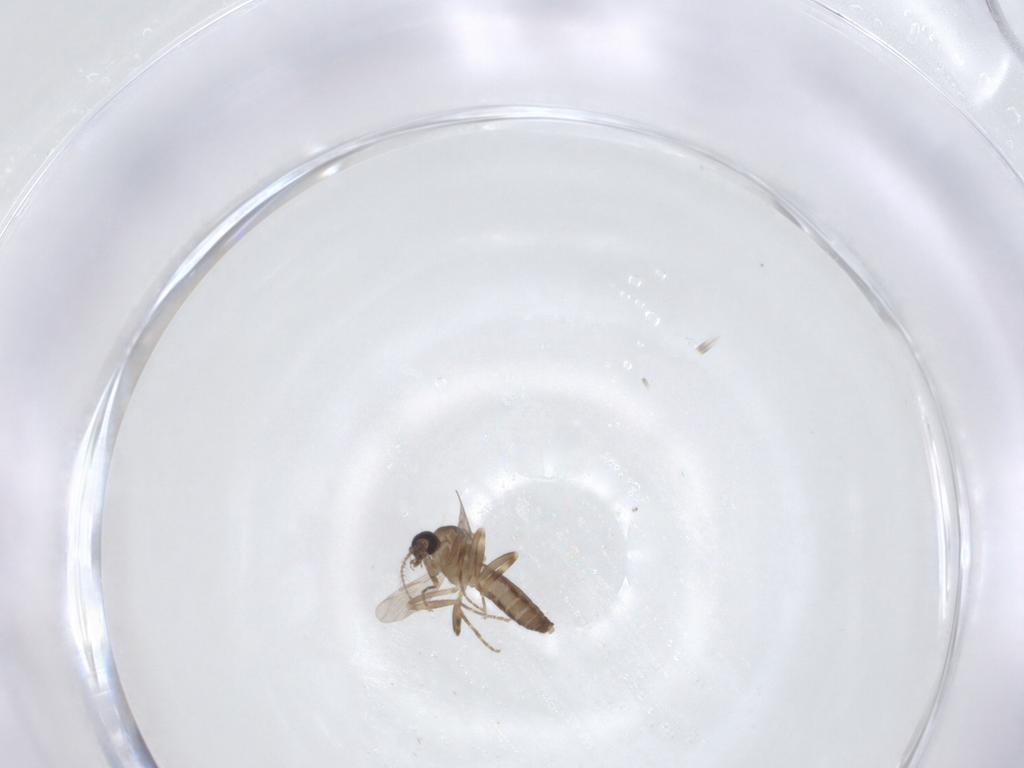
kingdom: Animalia
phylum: Arthropoda
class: Insecta
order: Diptera
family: Ceratopogonidae
